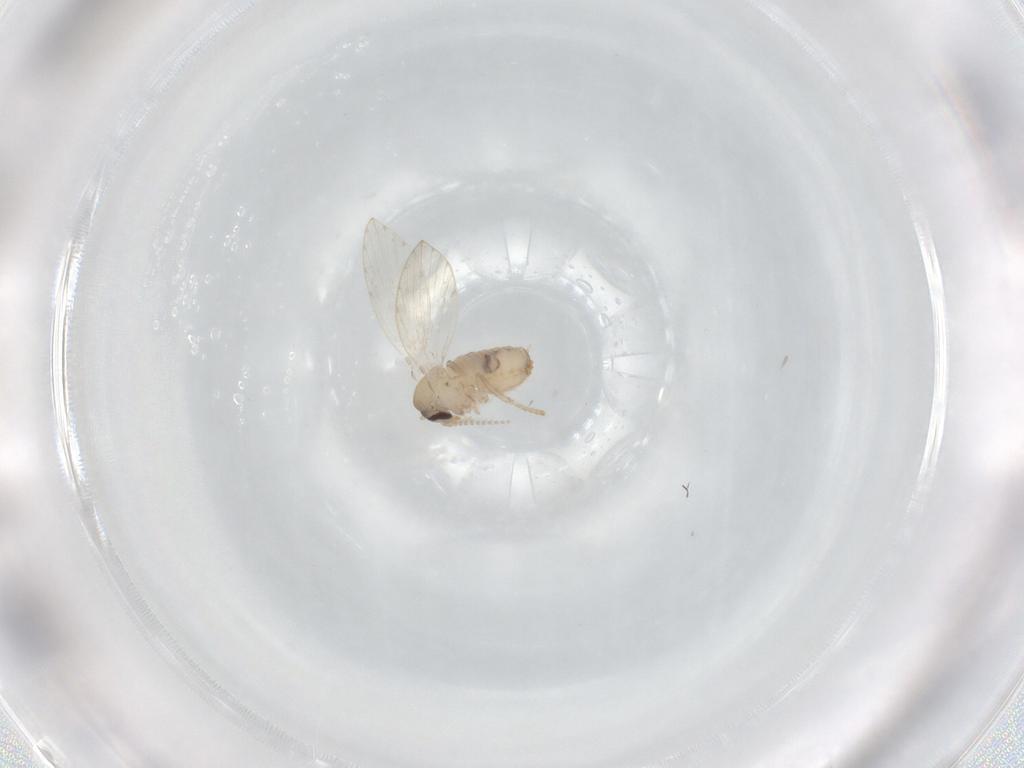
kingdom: Animalia
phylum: Arthropoda
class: Insecta
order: Diptera
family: Psychodidae
